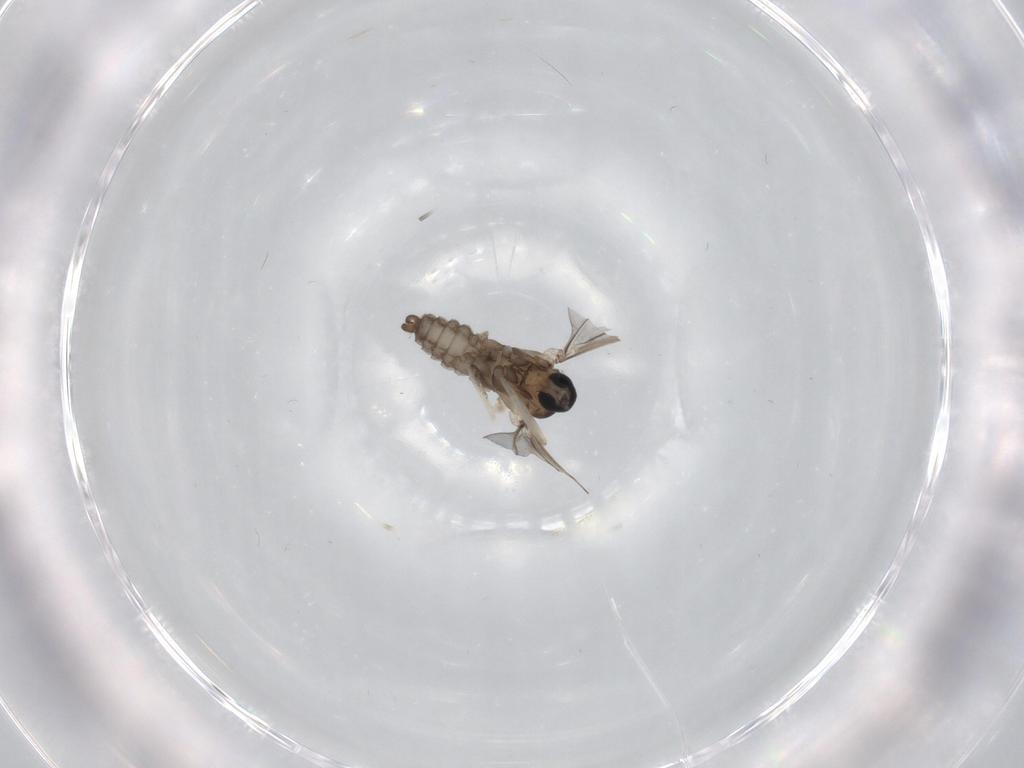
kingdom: Animalia
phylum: Arthropoda
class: Insecta
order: Diptera
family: Cecidomyiidae
